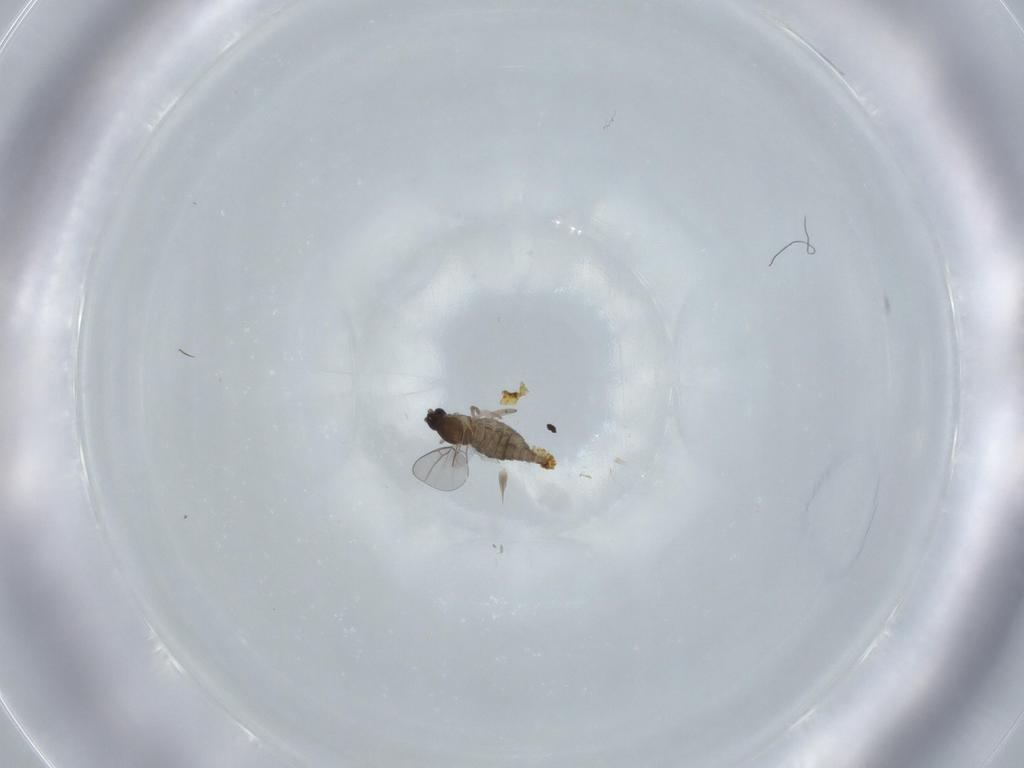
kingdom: Animalia
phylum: Arthropoda
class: Insecta
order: Diptera
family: Cecidomyiidae
